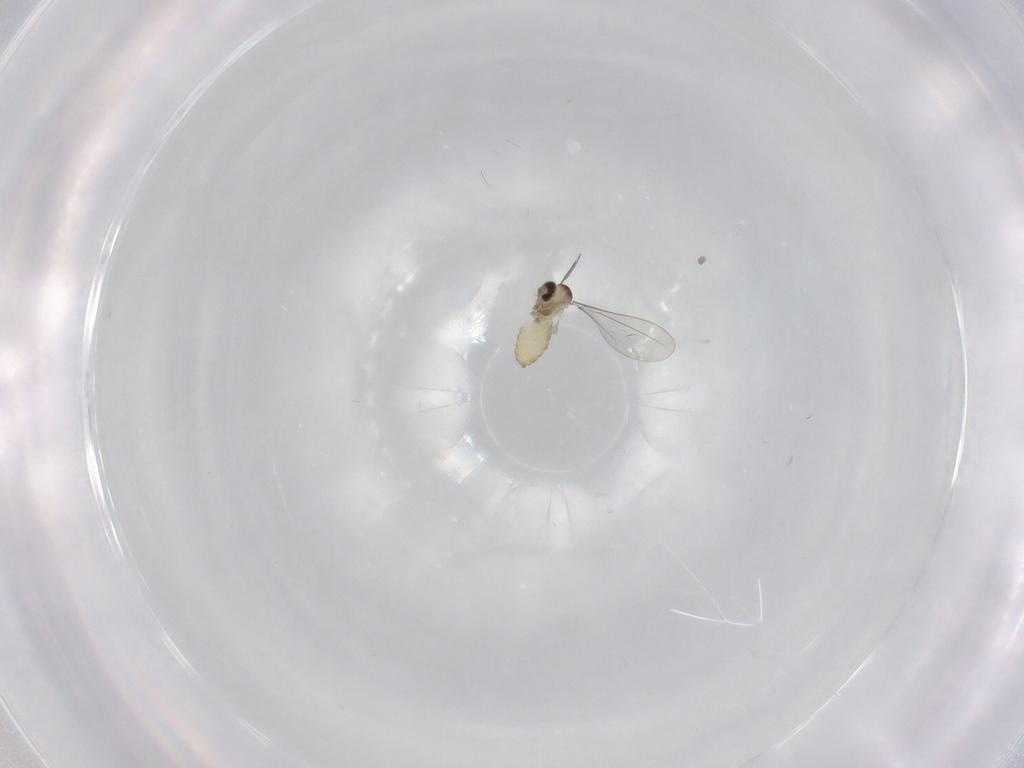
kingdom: Animalia
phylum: Arthropoda
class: Insecta
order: Diptera
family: Cecidomyiidae
